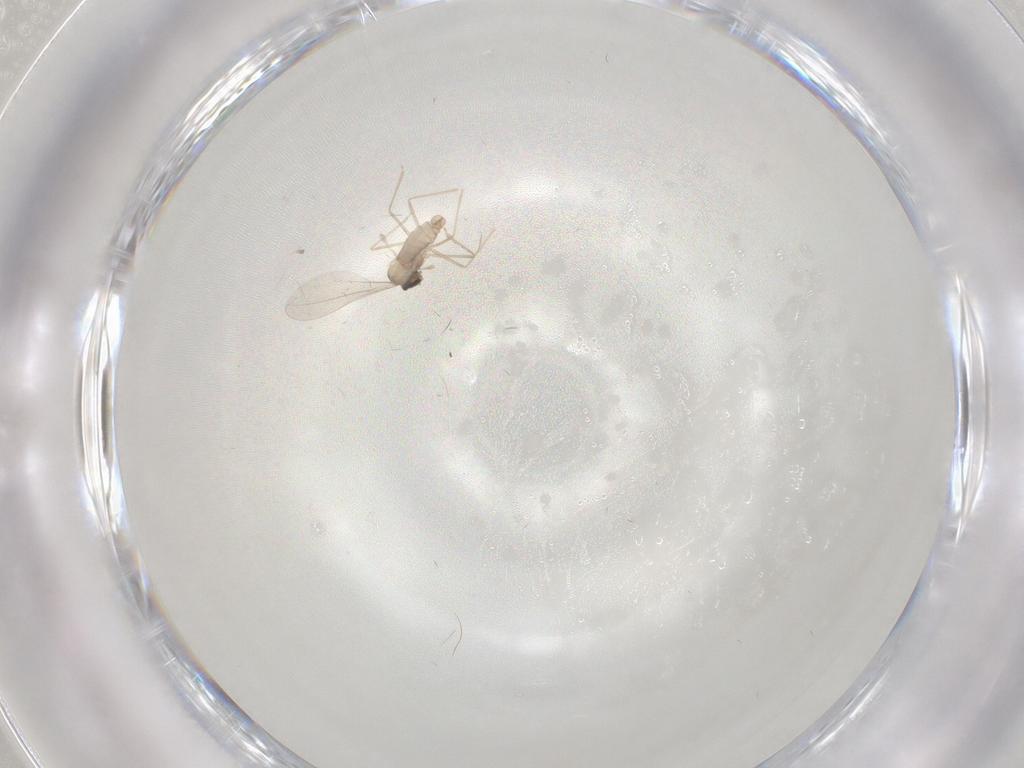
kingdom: Animalia
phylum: Arthropoda
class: Insecta
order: Diptera
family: Cecidomyiidae
